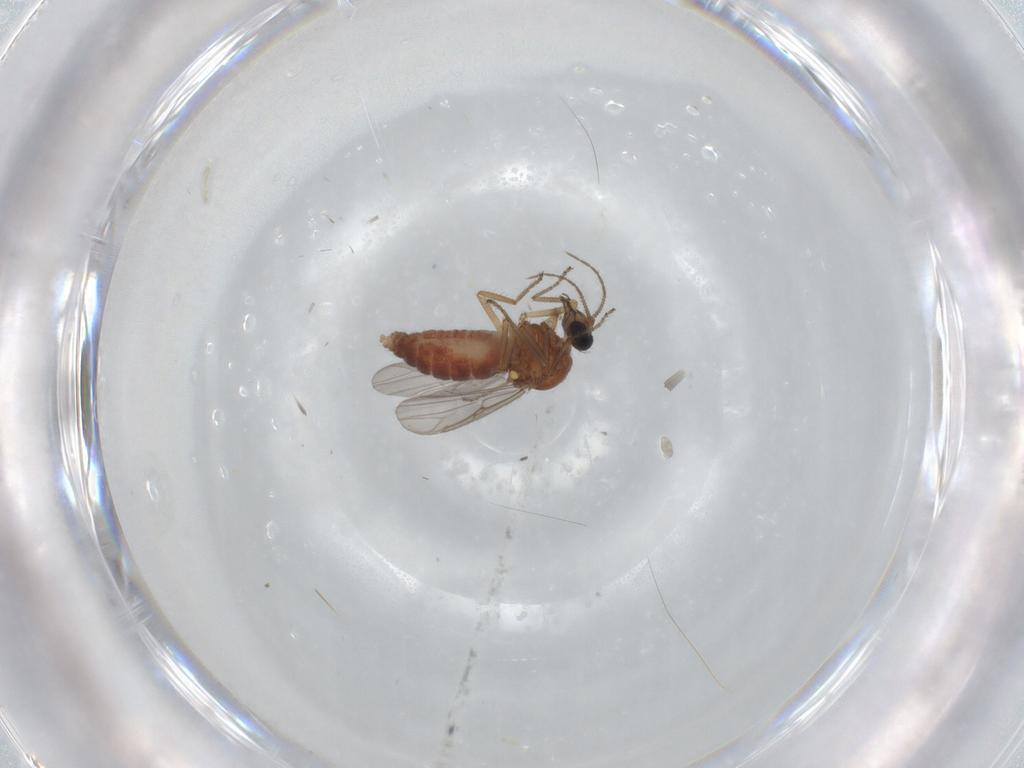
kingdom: Animalia
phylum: Arthropoda
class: Insecta
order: Diptera
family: Ceratopogonidae
